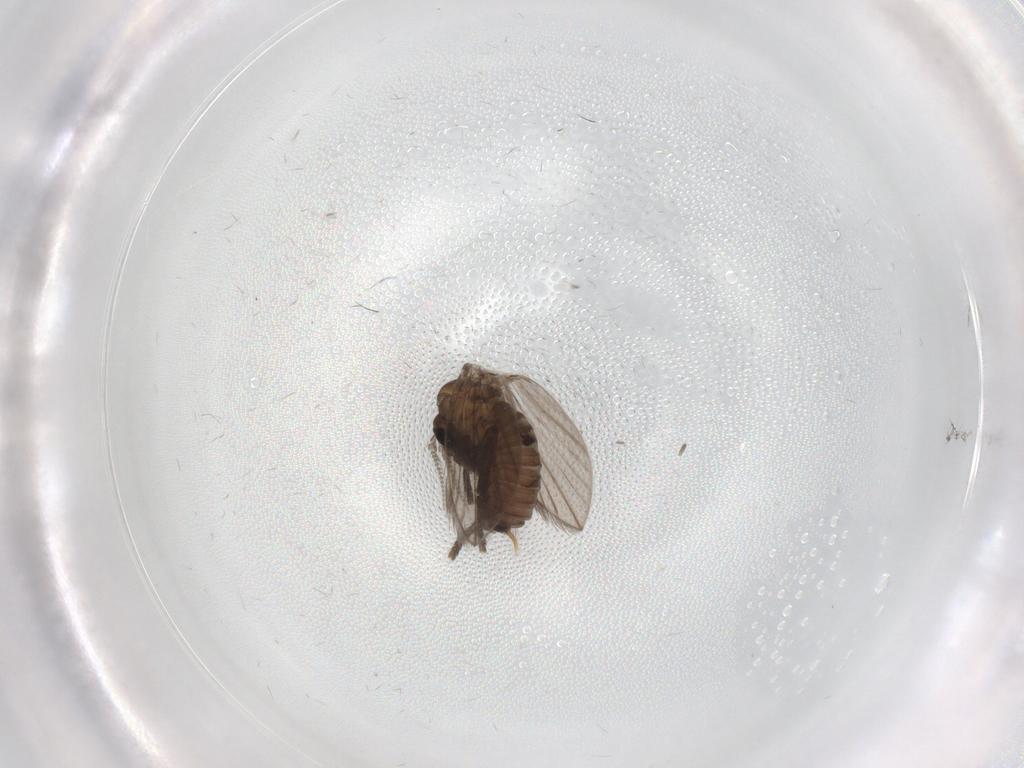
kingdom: Animalia
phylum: Arthropoda
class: Insecta
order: Diptera
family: Psychodidae
